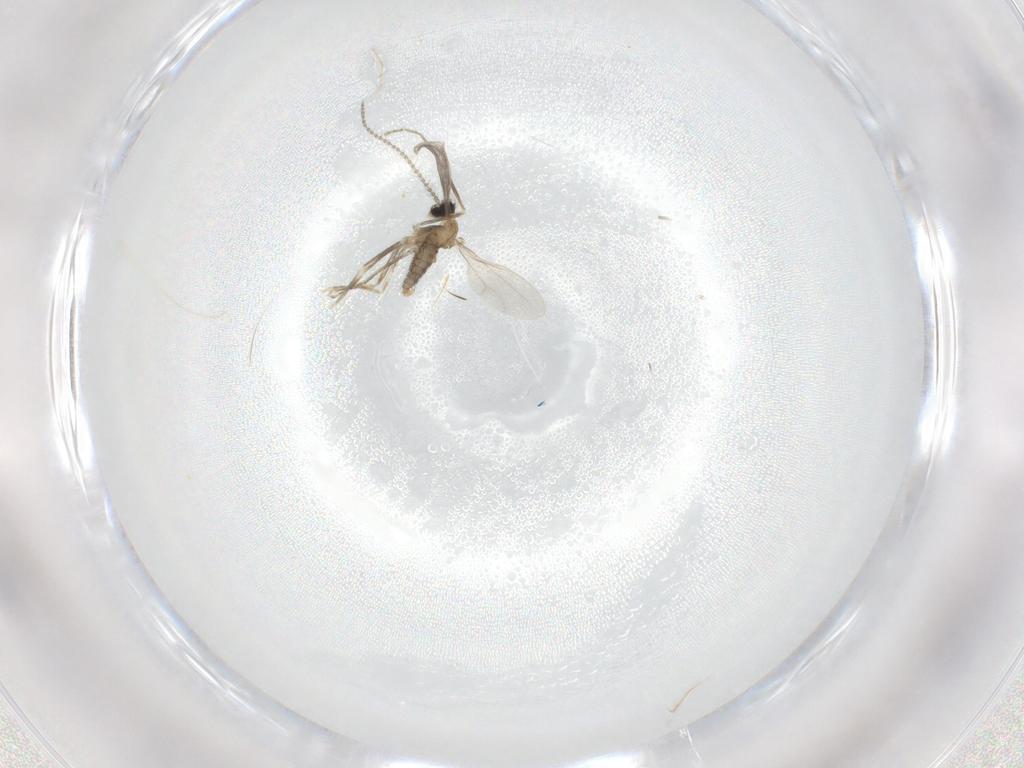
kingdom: Animalia
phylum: Arthropoda
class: Insecta
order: Diptera
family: Cecidomyiidae
